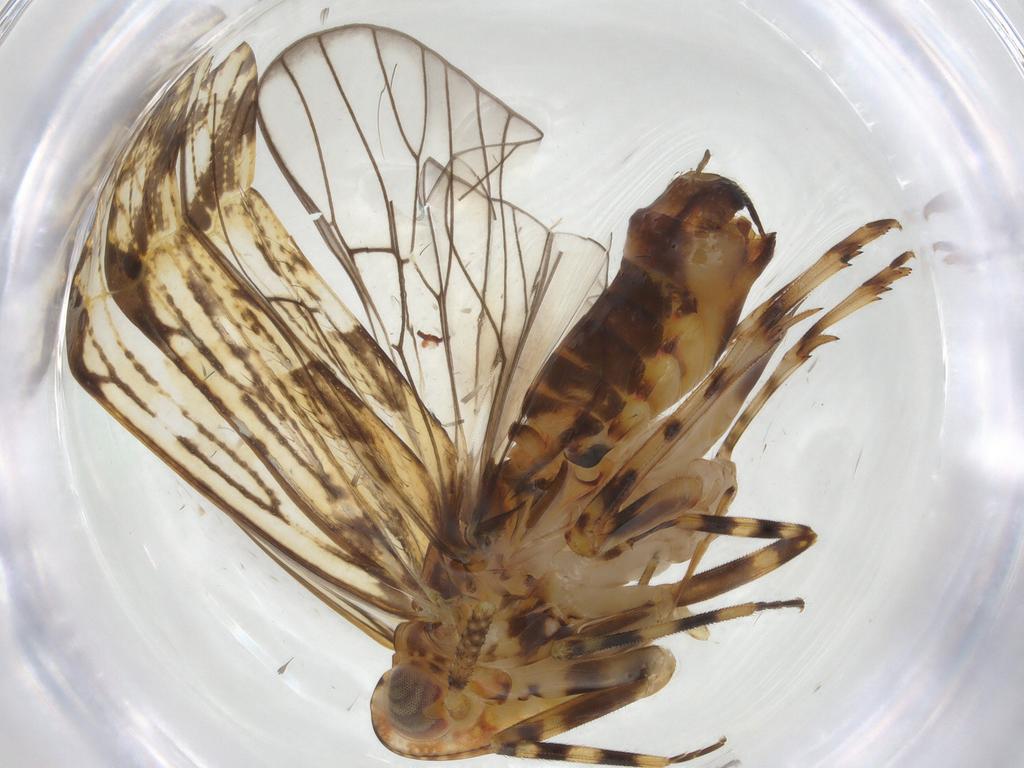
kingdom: Animalia
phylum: Arthropoda
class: Insecta
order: Hemiptera
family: Delphacidae
